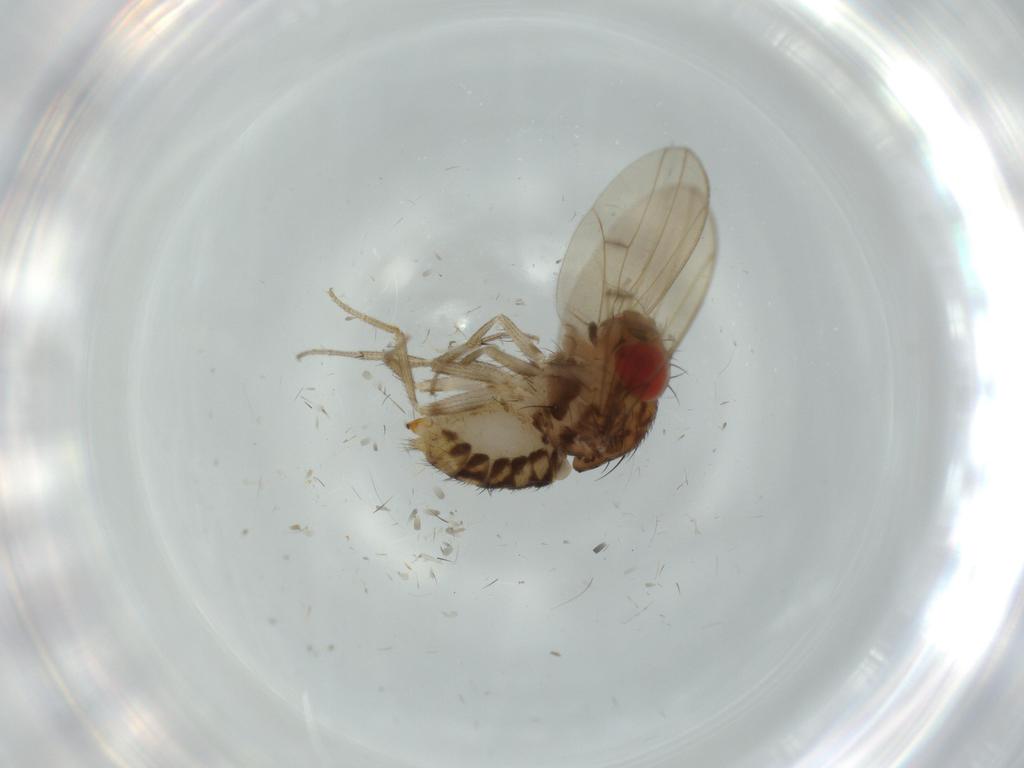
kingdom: Animalia
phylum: Arthropoda
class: Insecta
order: Diptera
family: Drosophilidae
